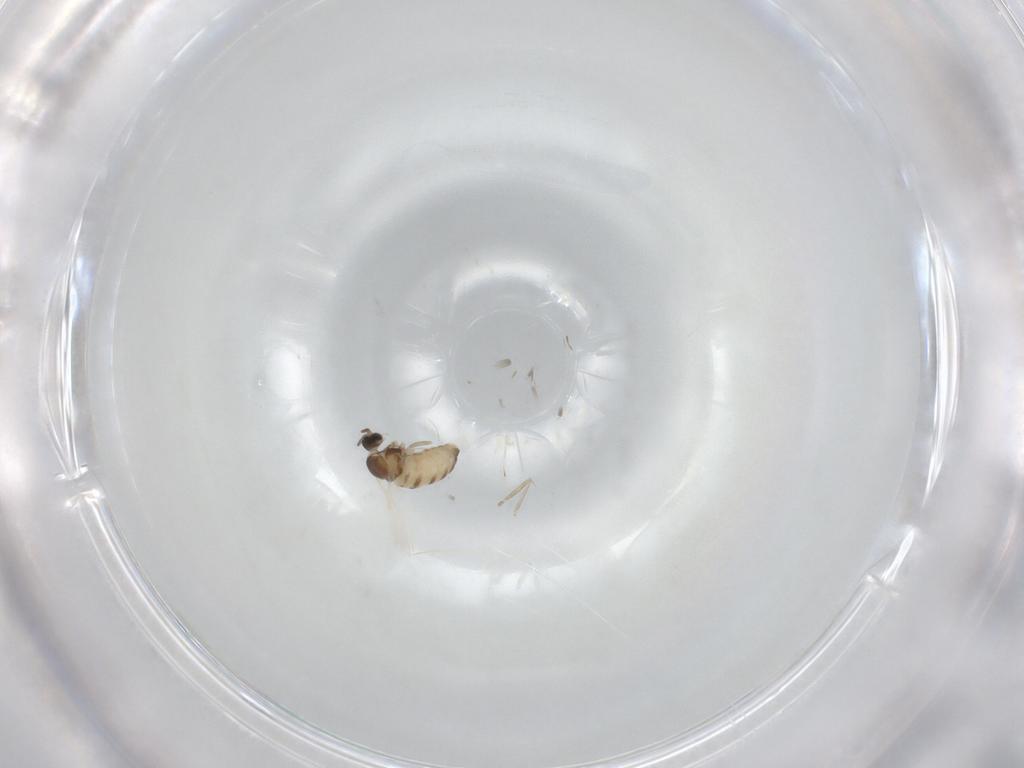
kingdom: Animalia
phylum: Arthropoda
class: Insecta
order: Diptera
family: Cecidomyiidae
